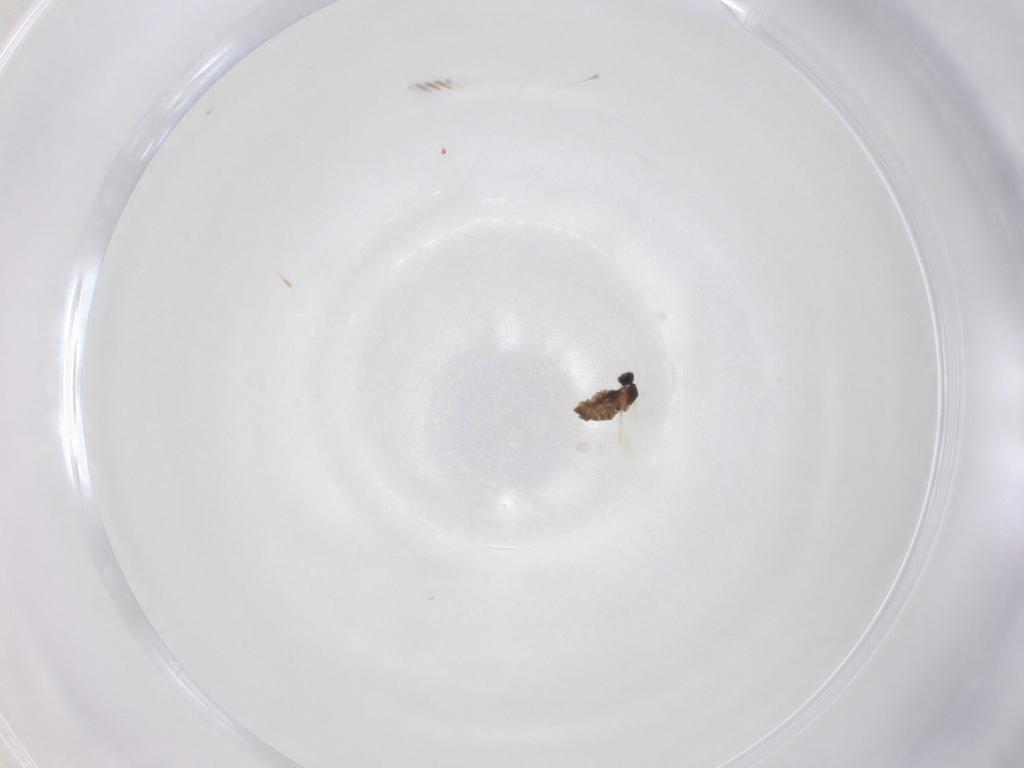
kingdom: Animalia
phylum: Arthropoda
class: Insecta
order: Diptera
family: Cecidomyiidae
